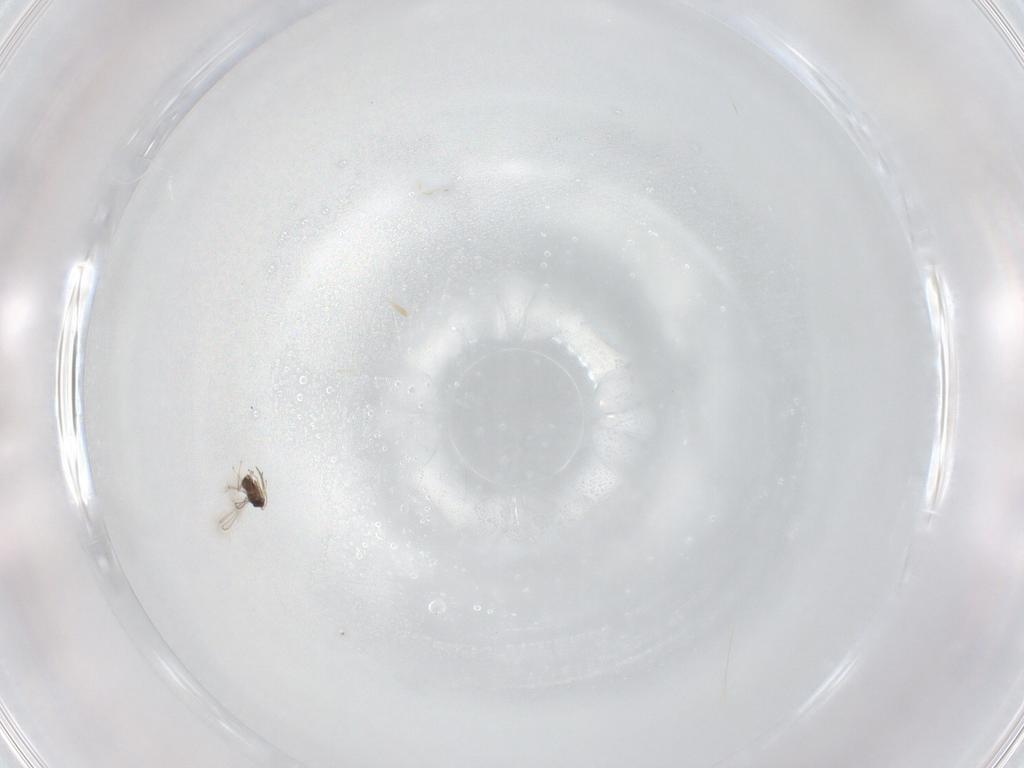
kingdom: Animalia
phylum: Arthropoda
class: Insecta
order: Hymenoptera
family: Mymaridae
